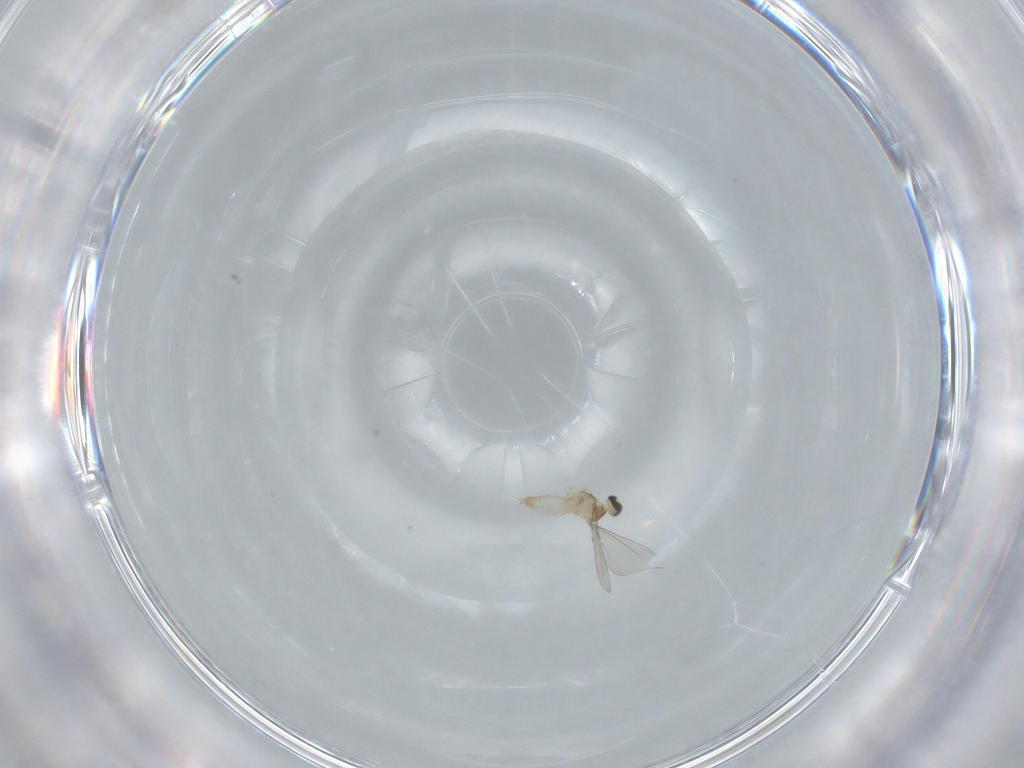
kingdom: Animalia
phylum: Arthropoda
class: Insecta
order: Diptera
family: Cecidomyiidae
